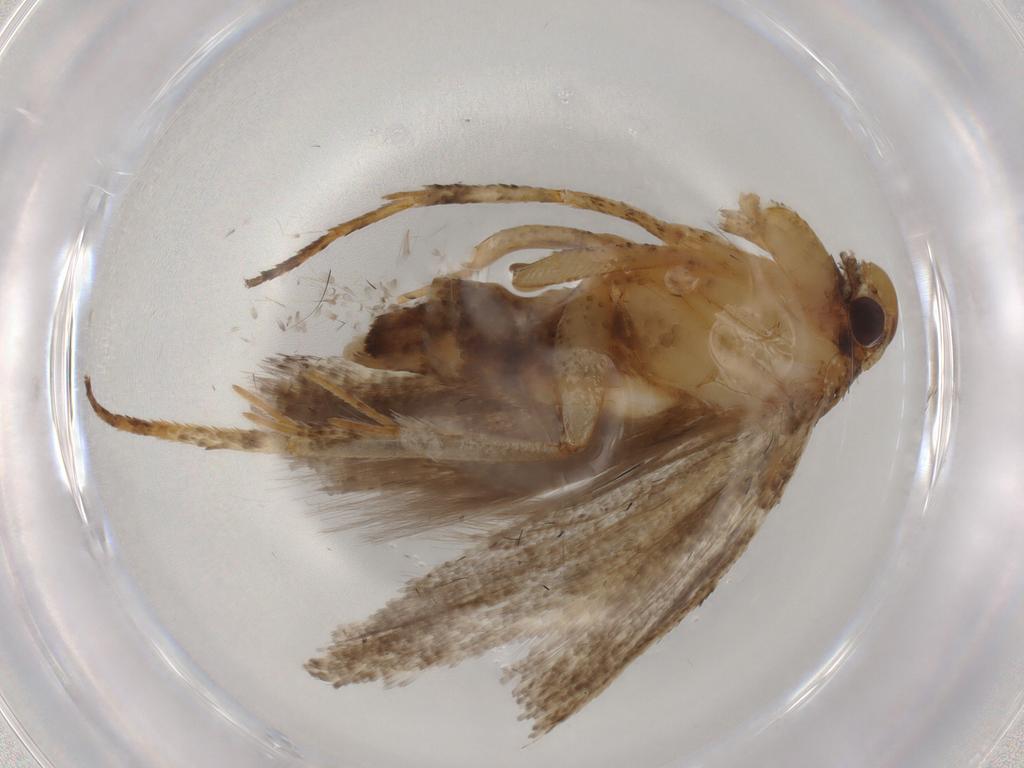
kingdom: Animalia
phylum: Arthropoda
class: Insecta
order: Lepidoptera
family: Gelechiidae
